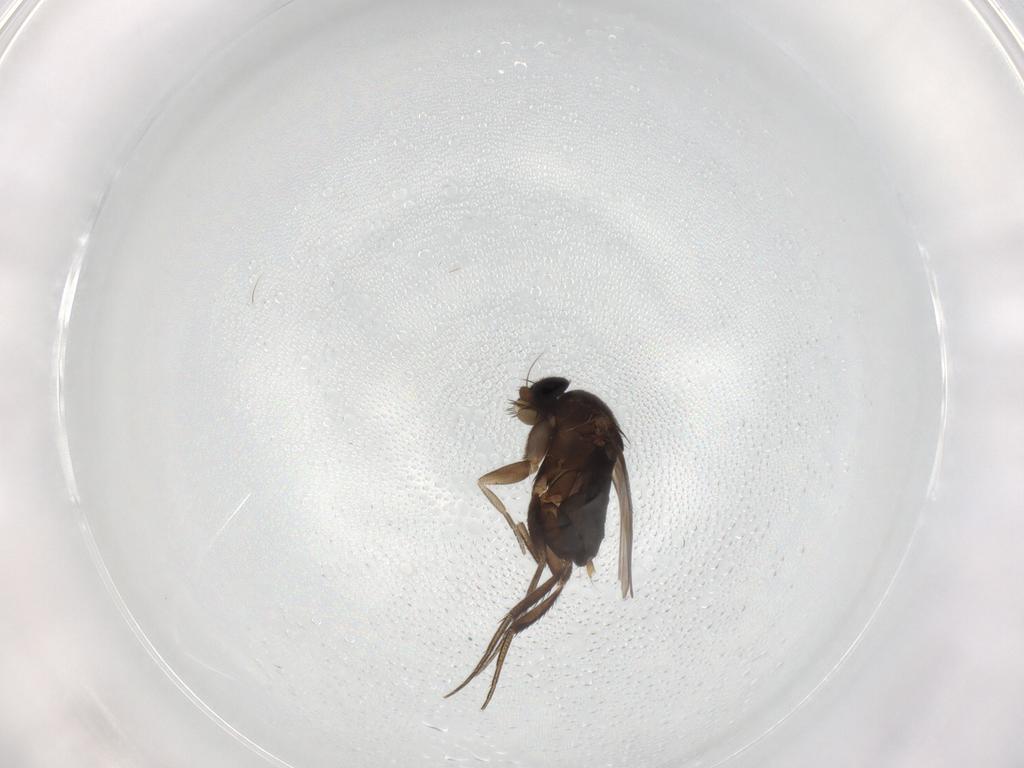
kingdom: Animalia
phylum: Arthropoda
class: Insecta
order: Diptera
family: Phoridae
